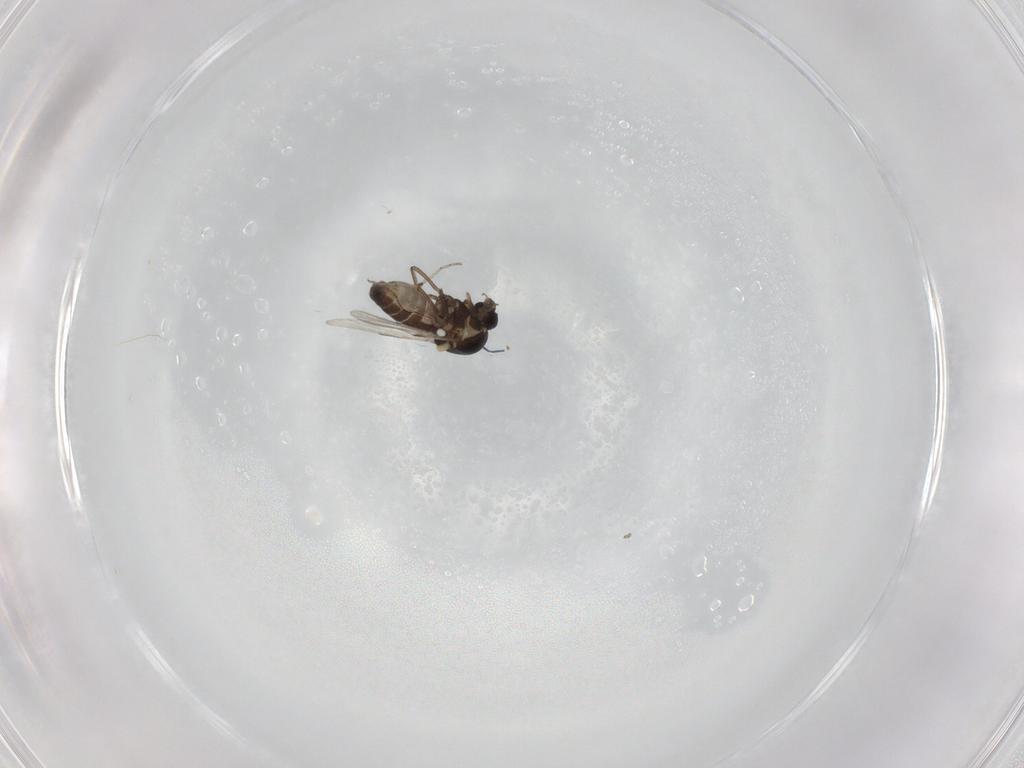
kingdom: Animalia
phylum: Arthropoda
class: Insecta
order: Diptera
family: Ceratopogonidae
